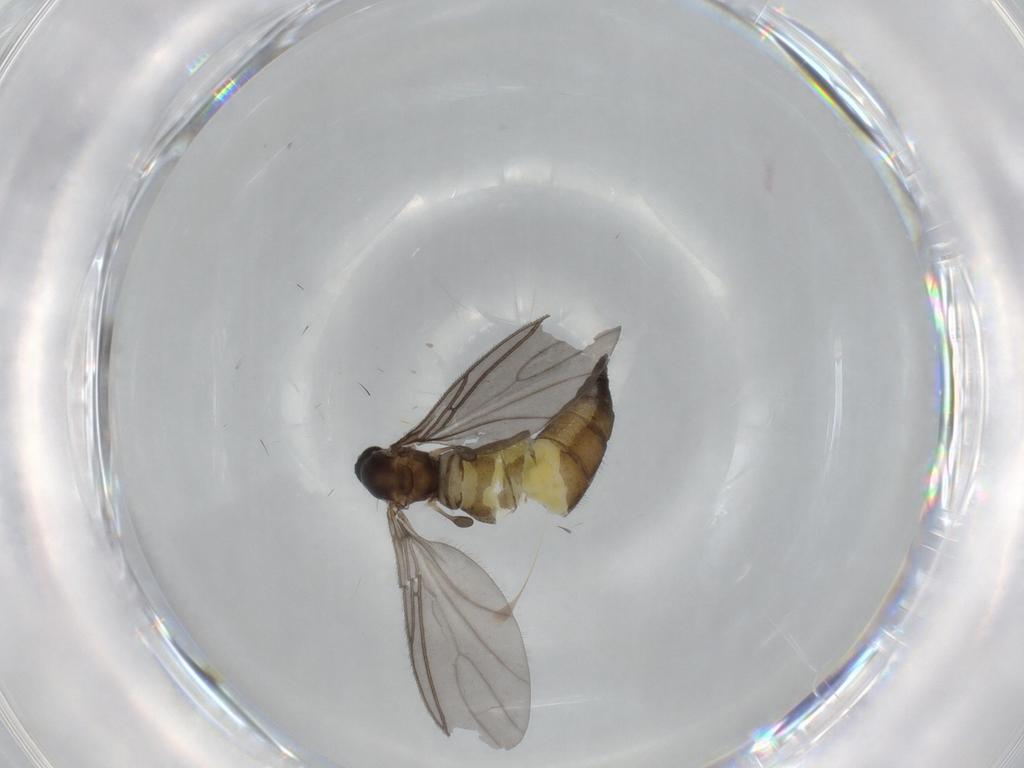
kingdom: Animalia
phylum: Arthropoda
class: Insecta
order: Diptera
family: Sciaridae
